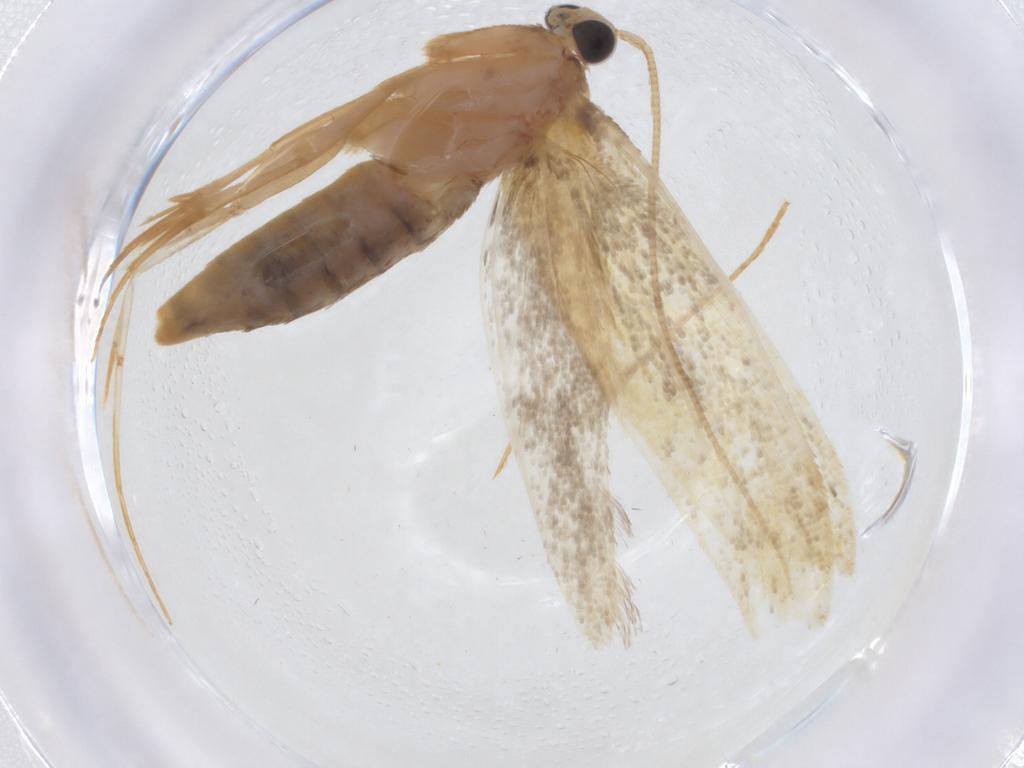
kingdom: Animalia
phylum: Arthropoda
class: Insecta
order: Lepidoptera
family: Tineidae
